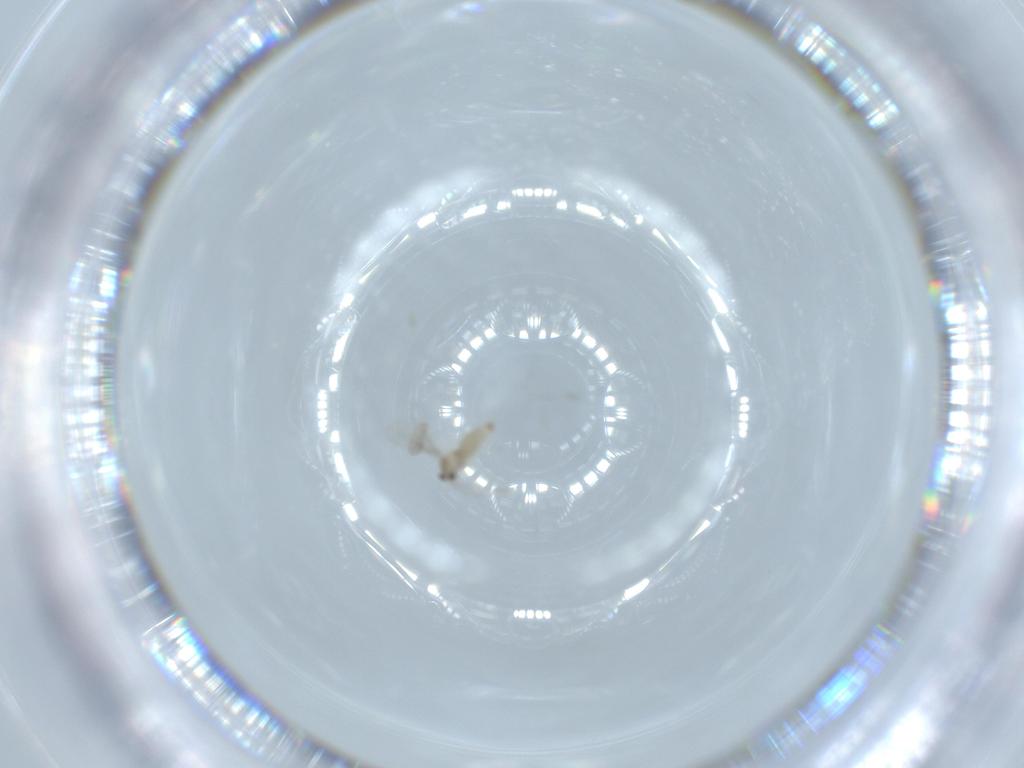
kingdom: Animalia
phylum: Arthropoda
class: Insecta
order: Diptera
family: Cecidomyiidae
